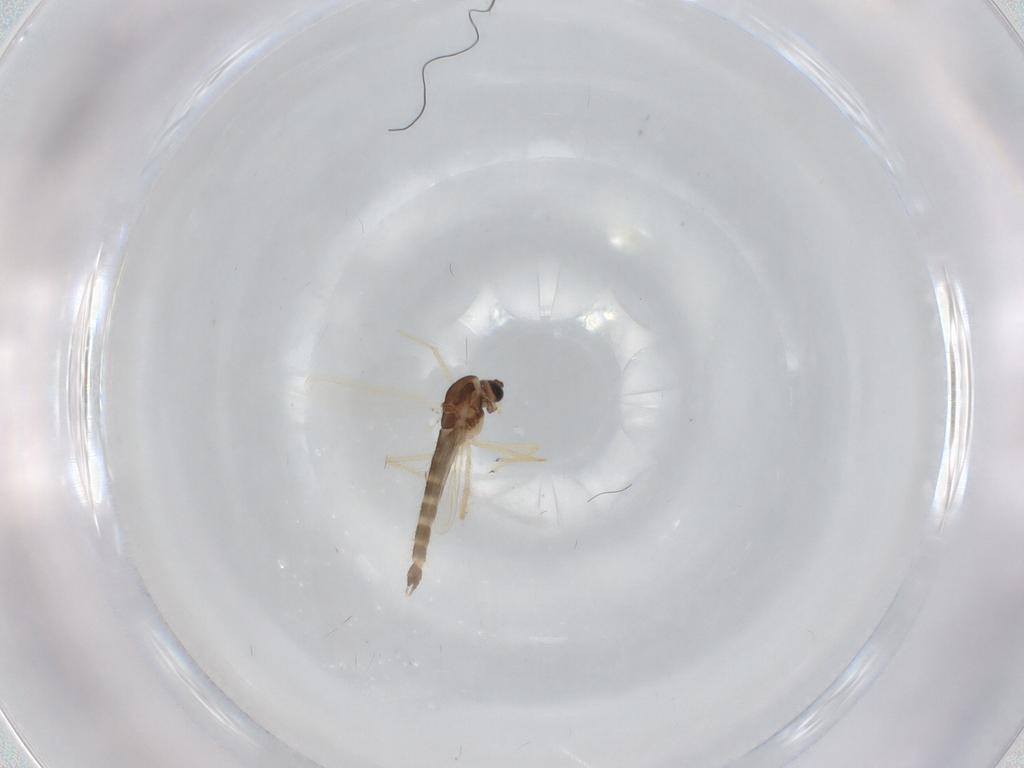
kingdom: Animalia
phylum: Arthropoda
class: Insecta
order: Diptera
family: Chironomidae
